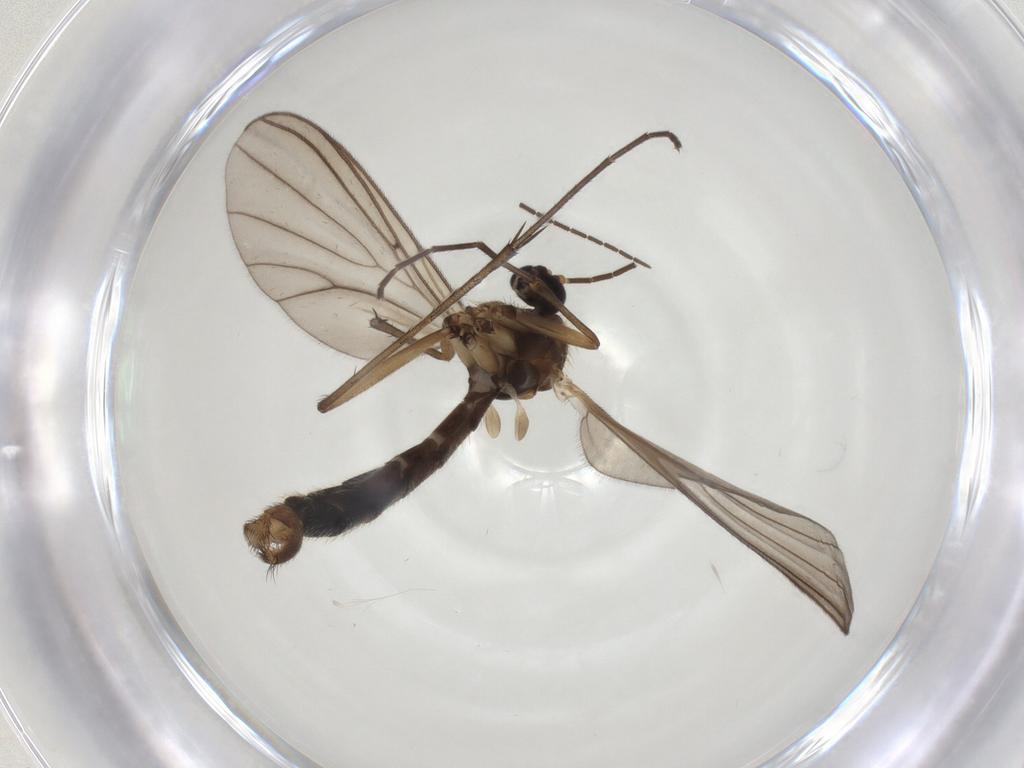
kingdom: Animalia
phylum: Arthropoda
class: Insecta
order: Diptera
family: Sciaridae
